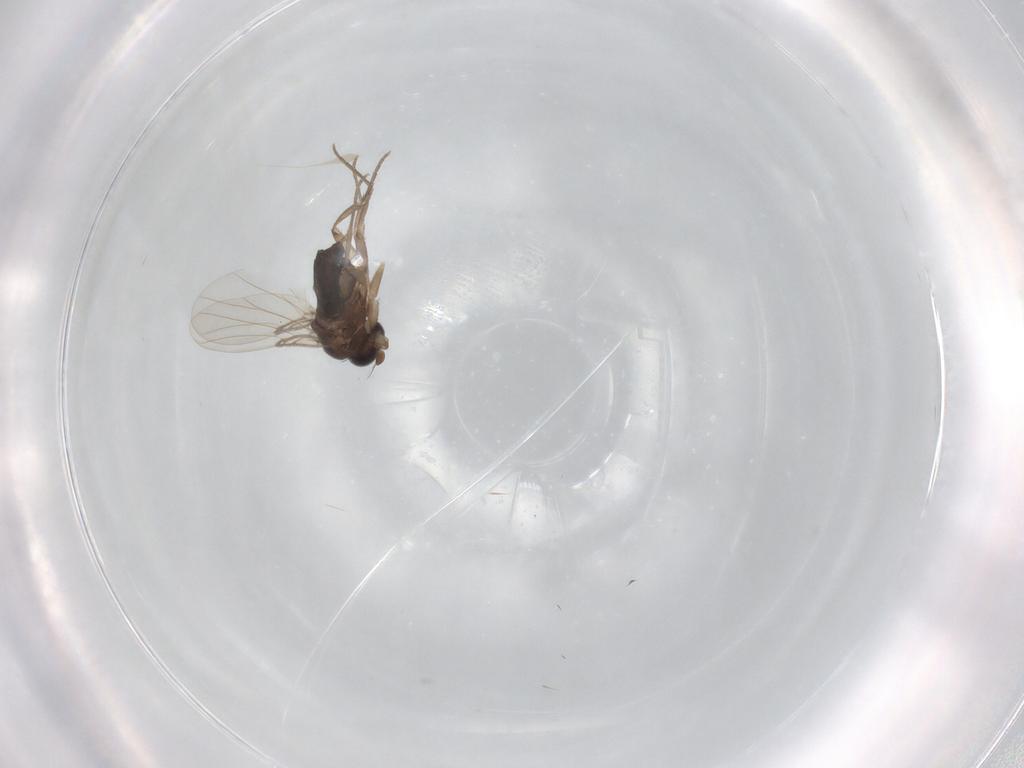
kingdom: Animalia
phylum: Arthropoda
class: Insecta
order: Diptera
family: Phoridae
